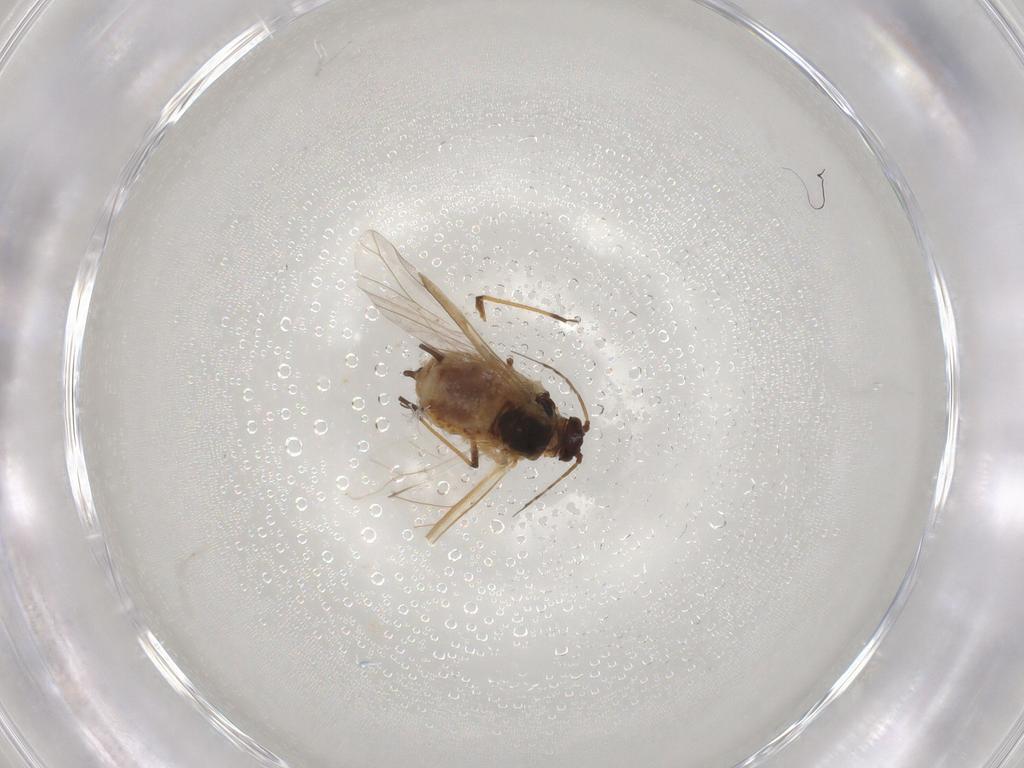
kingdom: Animalia
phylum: Arthropoda
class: Insecta
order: Hemiptera
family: Aphididae
